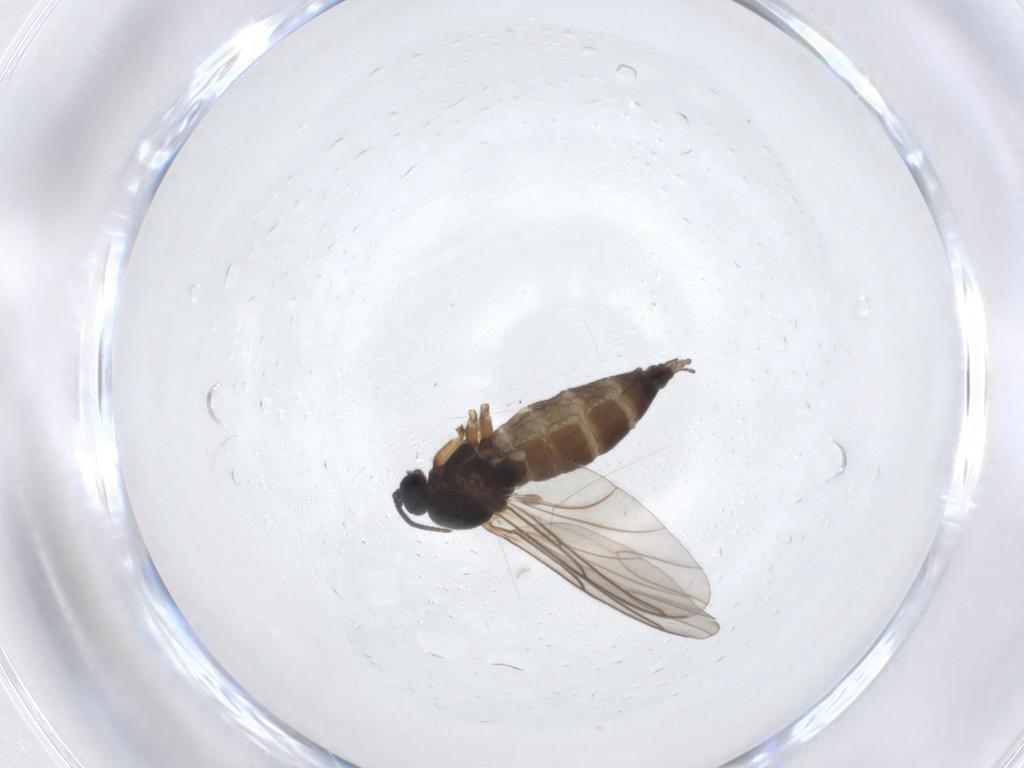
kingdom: Animalia
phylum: Arthropoda
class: Insecta
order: Diptera
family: Sciaridae
